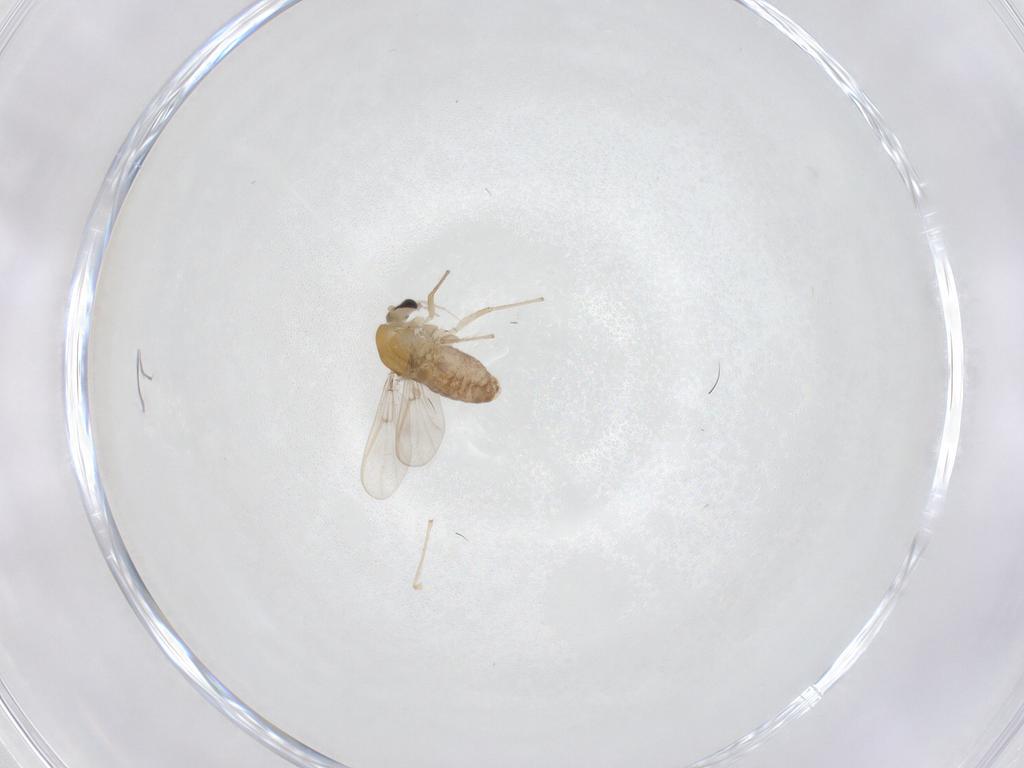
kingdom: Animalia
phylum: Arthropoda
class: Insecta
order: Diptera
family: Chironomidae
